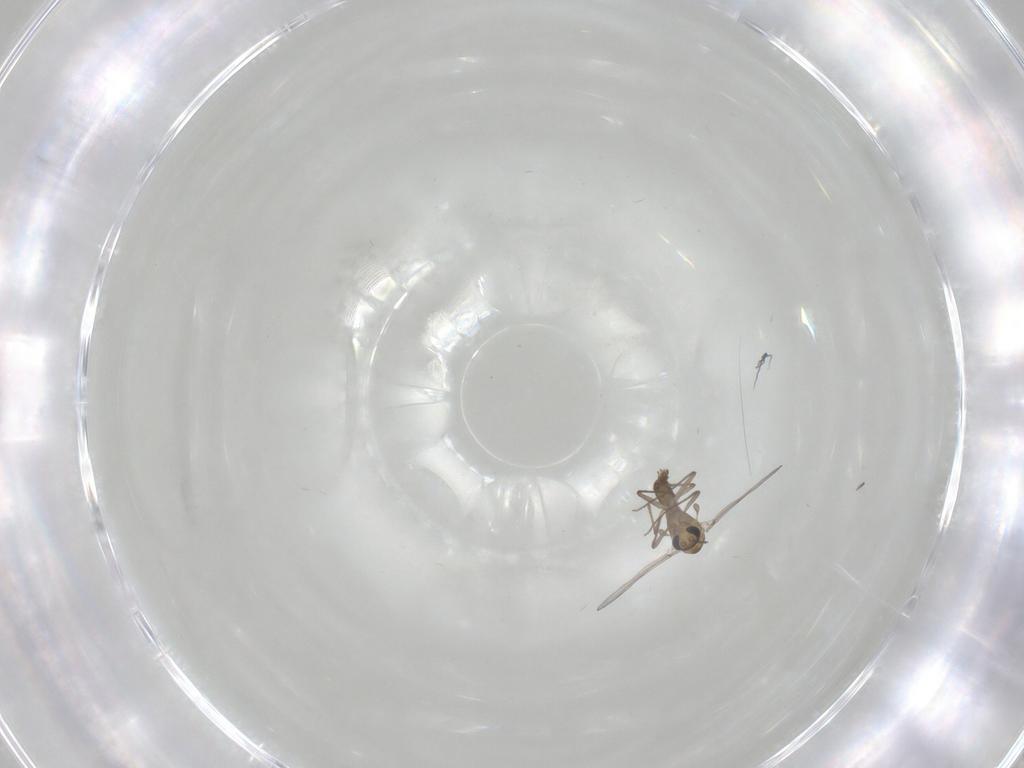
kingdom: Animalia
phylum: Arthropoda
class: Insecta
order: Diptera
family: Chironomidae
